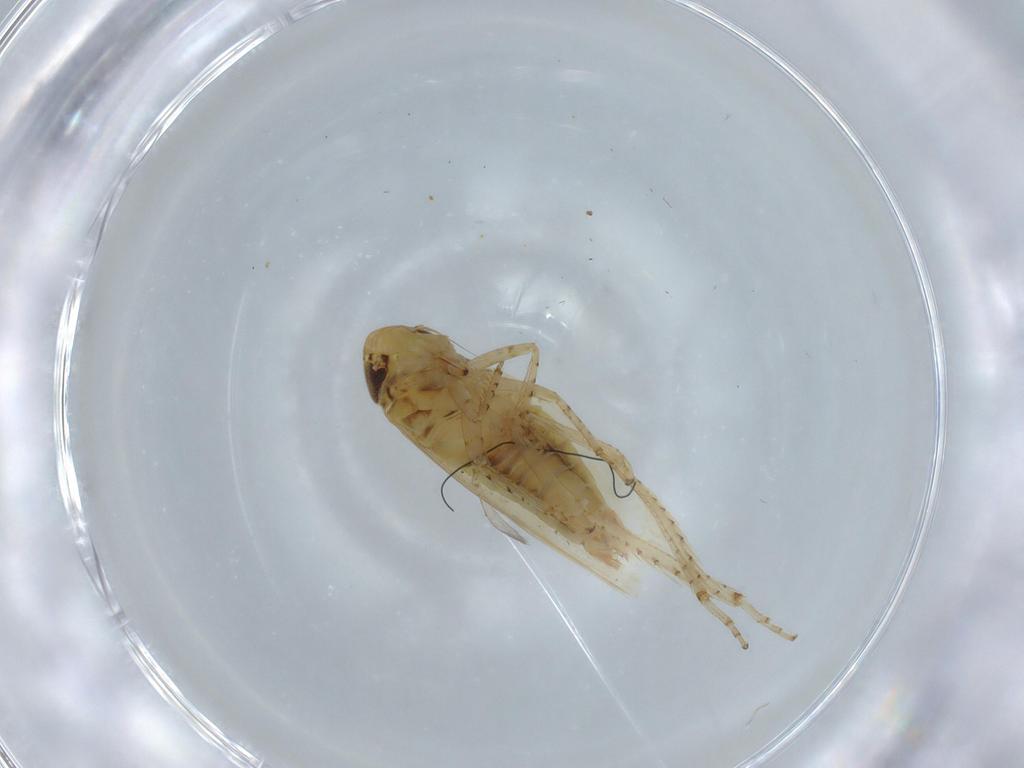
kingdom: Animalia
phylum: Arthropoda
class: Insecta
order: Hemiptera
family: Cicadellidae
